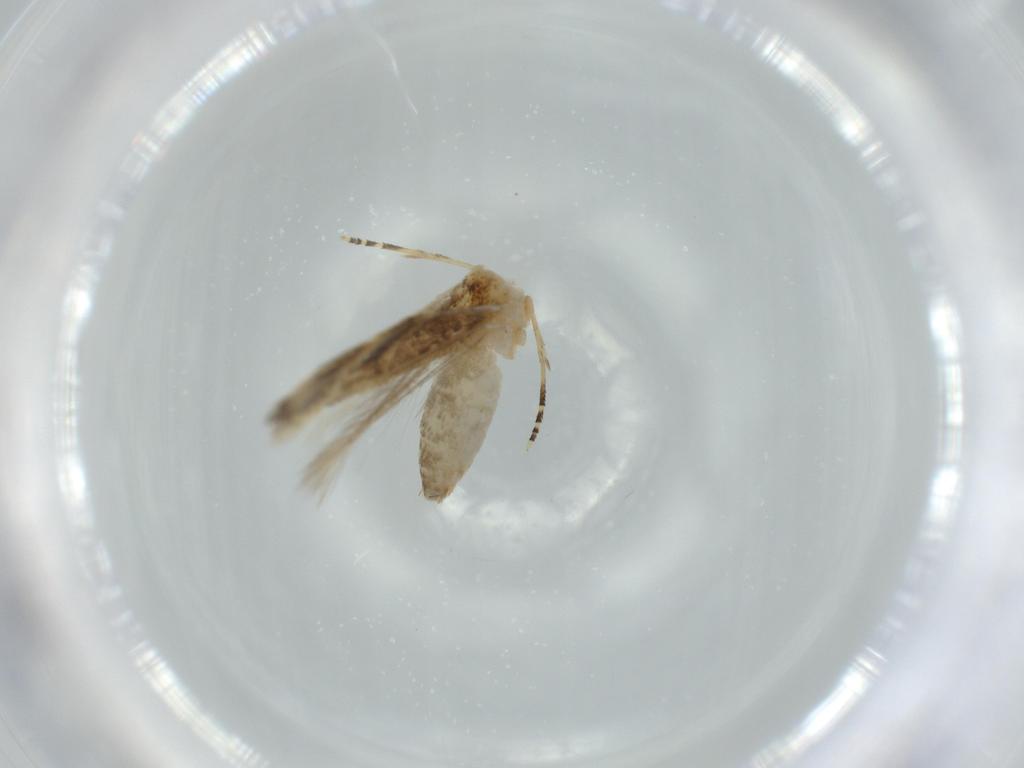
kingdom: Animalia
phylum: Arthropoda
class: Insecta
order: Lepidoptera
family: Bucculatricidae
